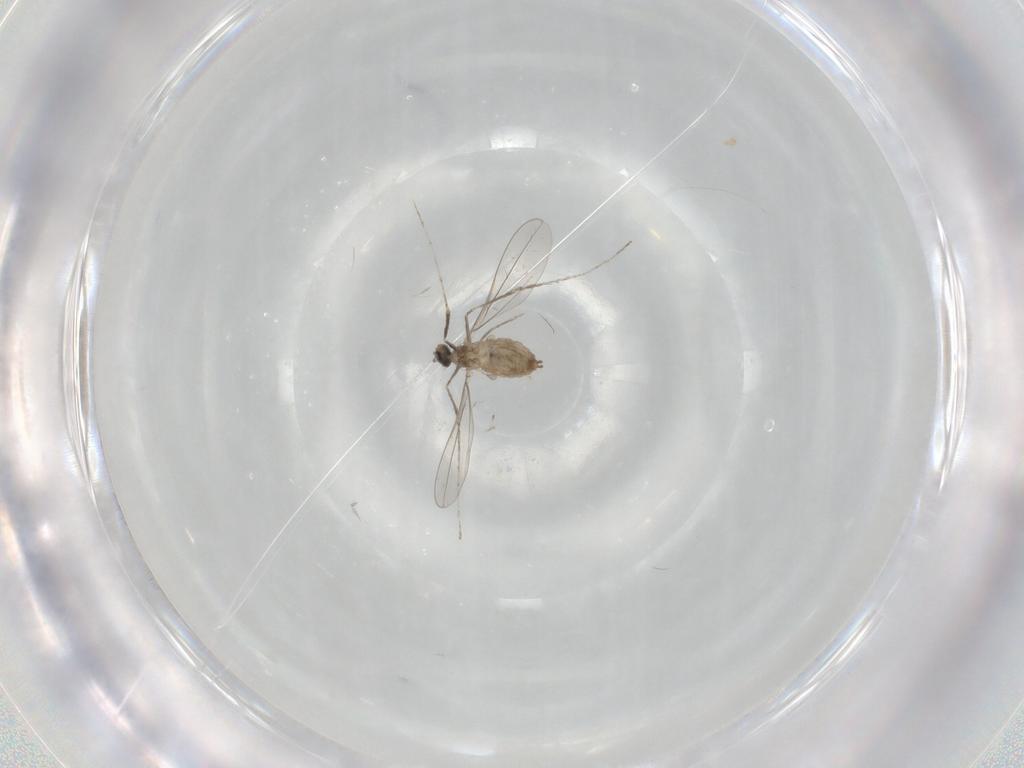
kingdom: Animalia
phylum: Arthropoda
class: Insecta
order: Diptera
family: Cecidomyiidae
